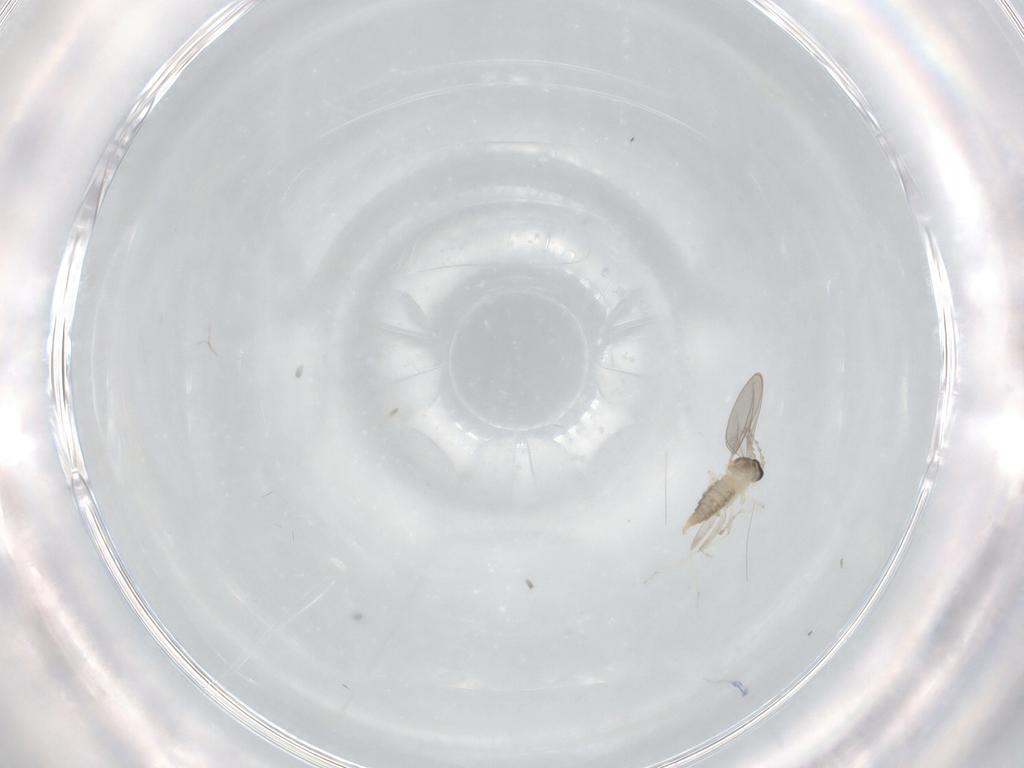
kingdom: Animalia
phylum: Arthropoda
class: Insecta
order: Diptera
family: Cecidomyiidae
